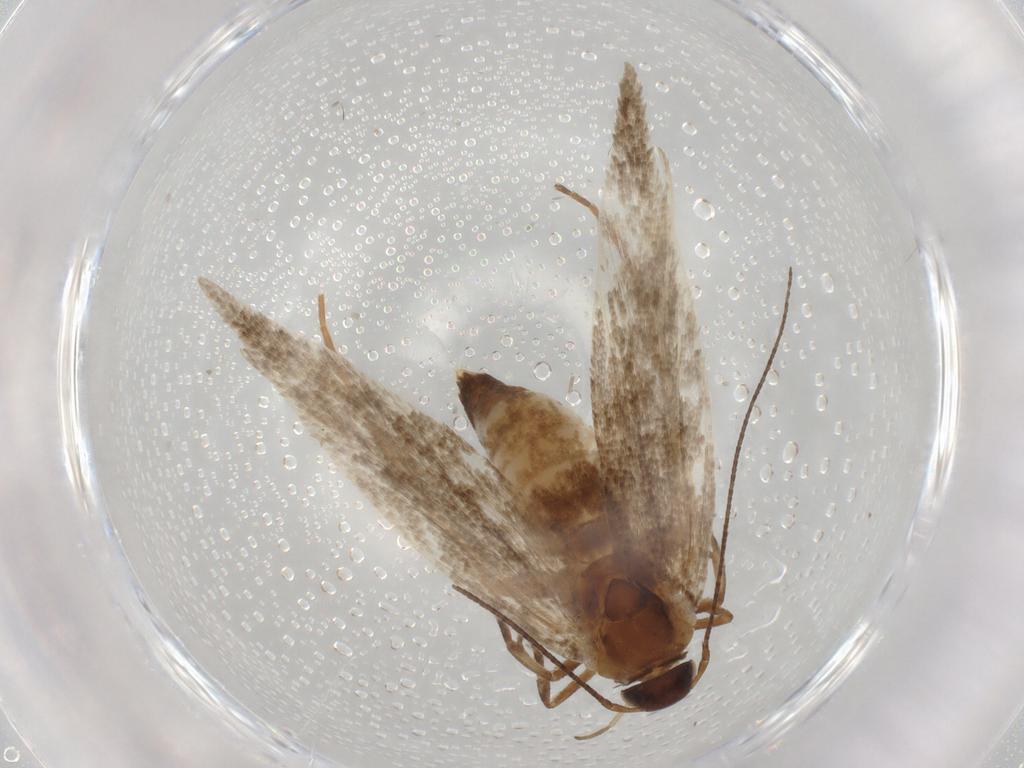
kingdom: Animalia
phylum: Arthropoda
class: Insecta
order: Lepidoptera
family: Gelechiidae
